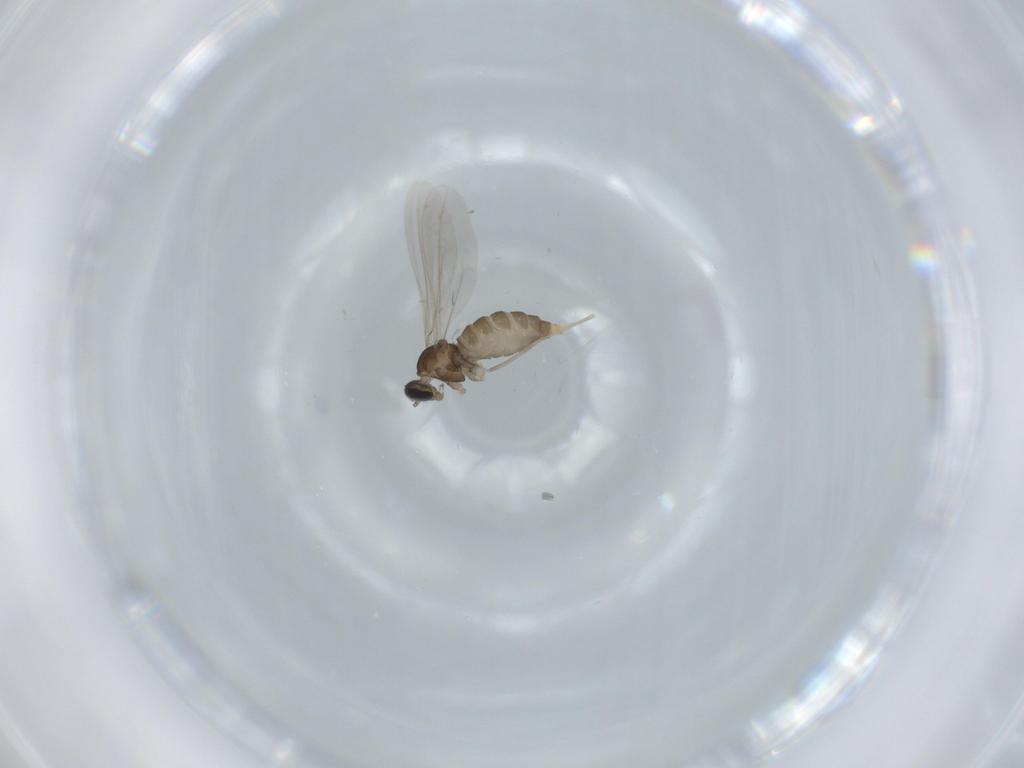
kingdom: Animalia
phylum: Arthropoda
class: Insecta
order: Diptera
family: Cecidomyiidae
